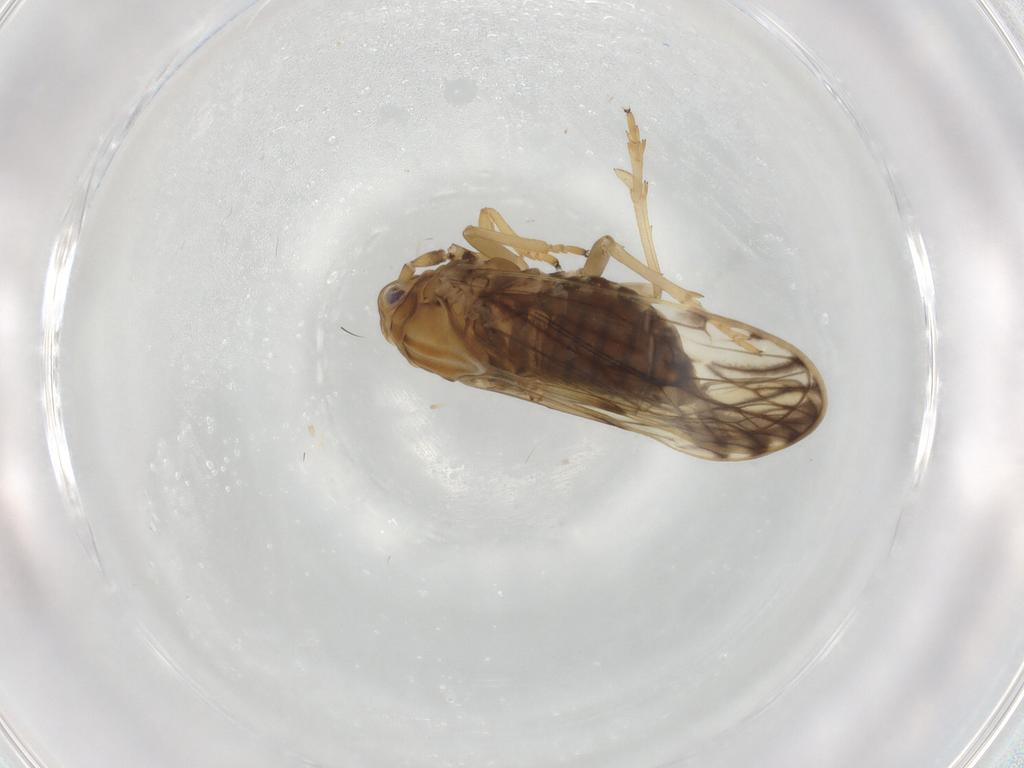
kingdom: Animalia
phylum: Arthropoda
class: Insecta
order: Hemiptera
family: Delphacidae
